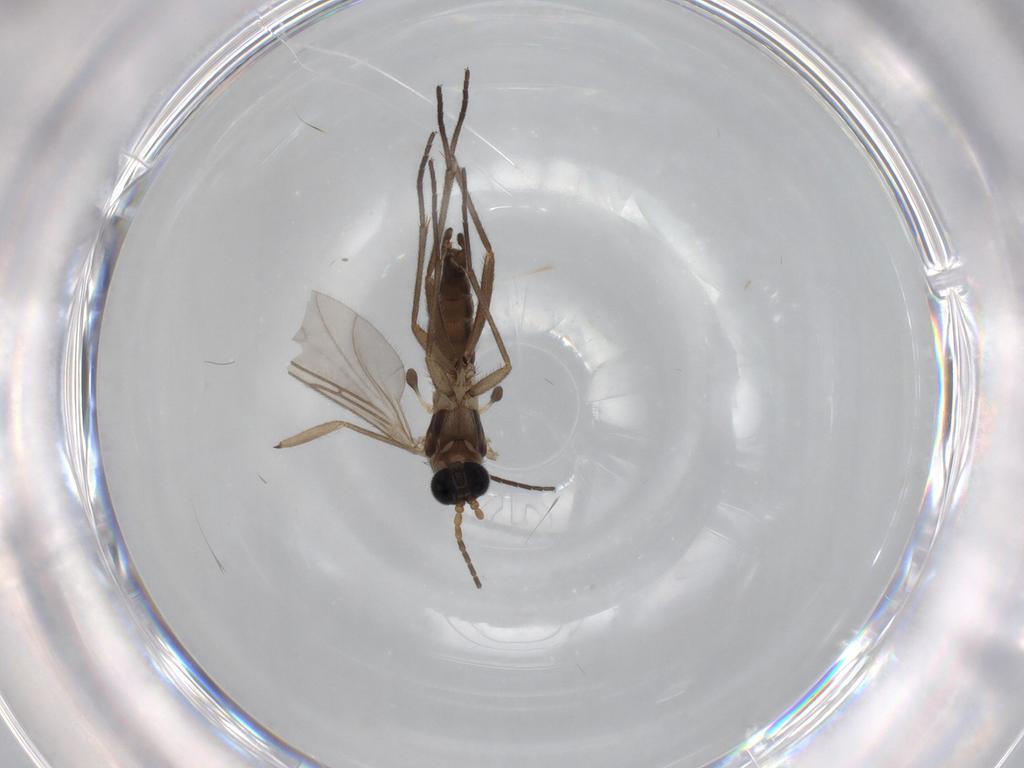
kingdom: Animalia
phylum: Arthropoda
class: Insecta
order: Diptera
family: Sciaridae
